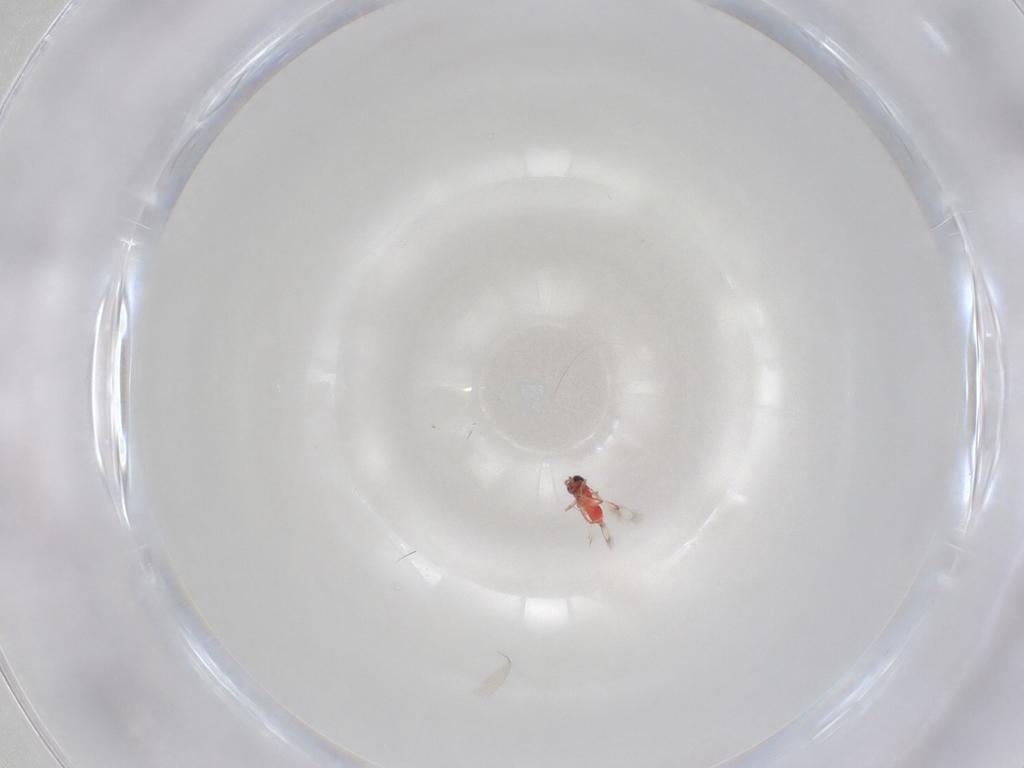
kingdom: Animalia
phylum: Arthropoda
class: Insecta
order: Hymenoptera
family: Trichogrammatidae
